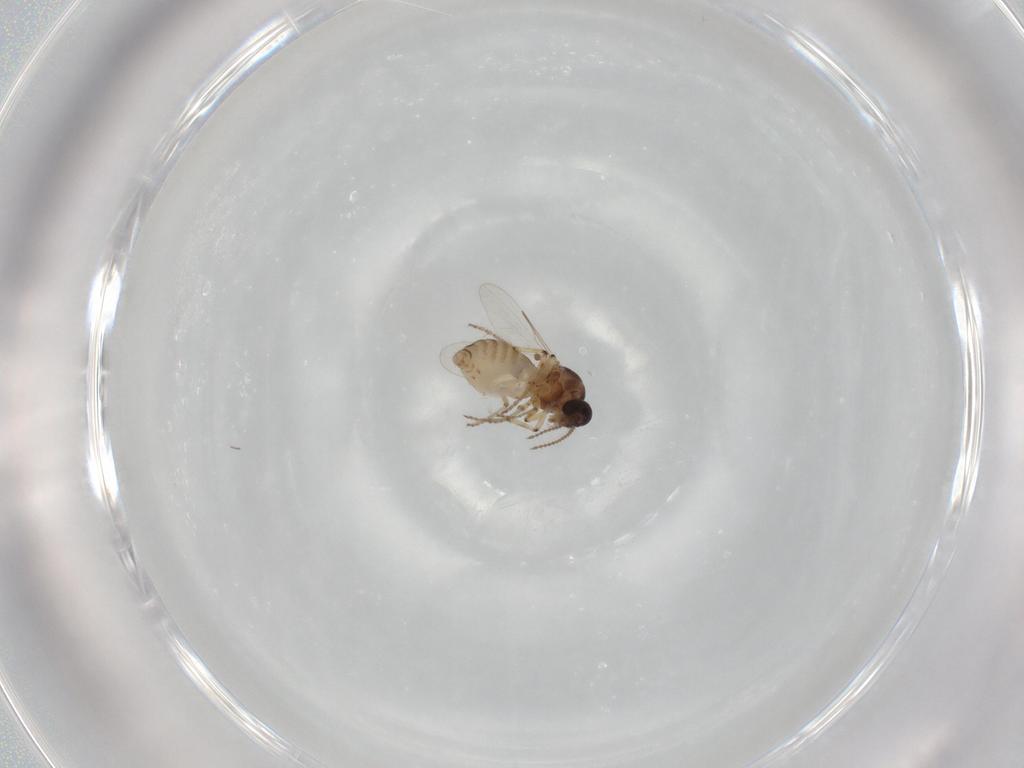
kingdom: Animalia
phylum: Arthropoda
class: Insecta
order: Diptera
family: Ceratopogonidae
